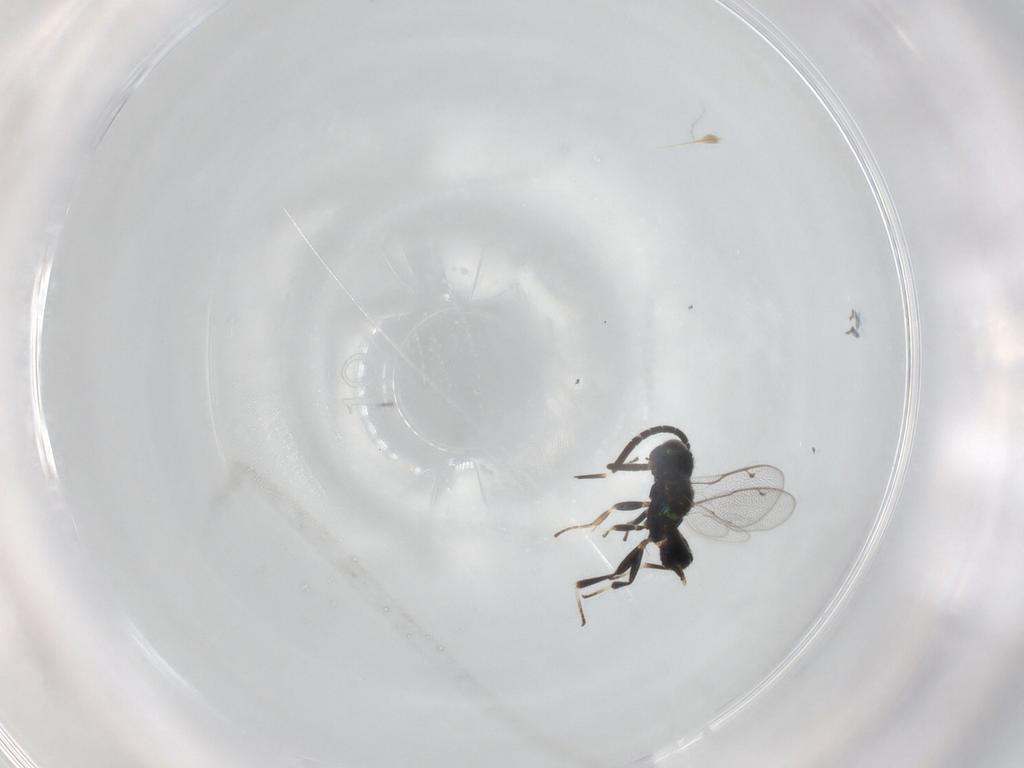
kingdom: Animalia
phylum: Arthropoda
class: Insecta
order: Hymenoptera
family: Eupelmidae
